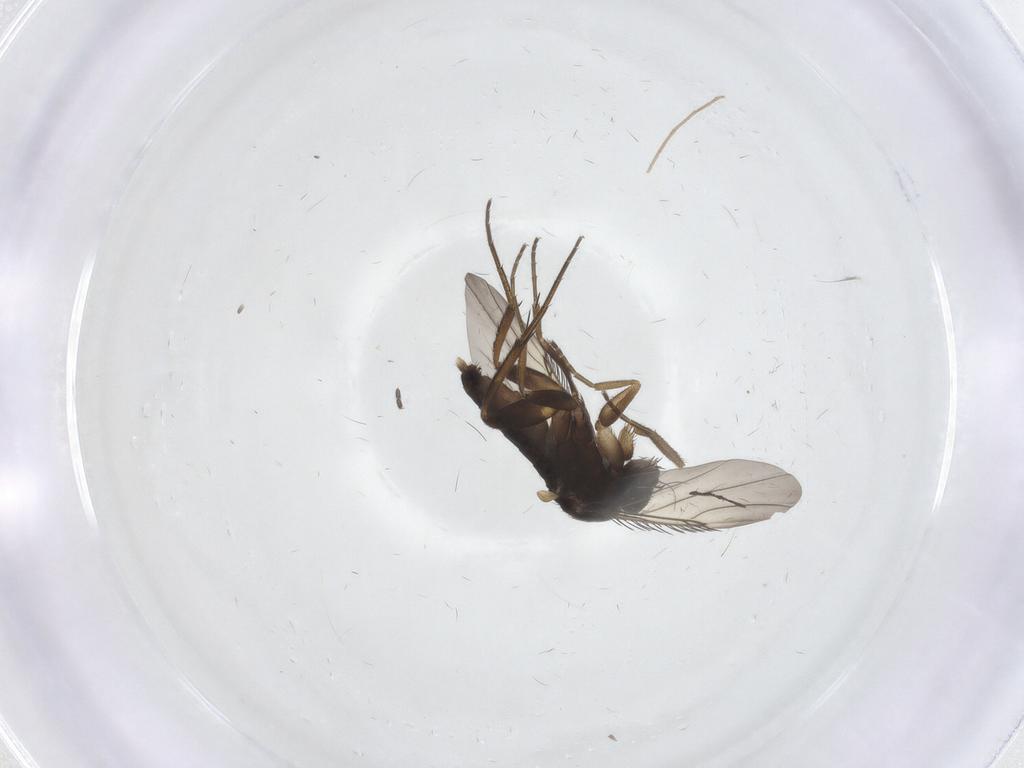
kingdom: Animalia
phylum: Arthropoda
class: Insecta
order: Diptera
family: Phoridae
